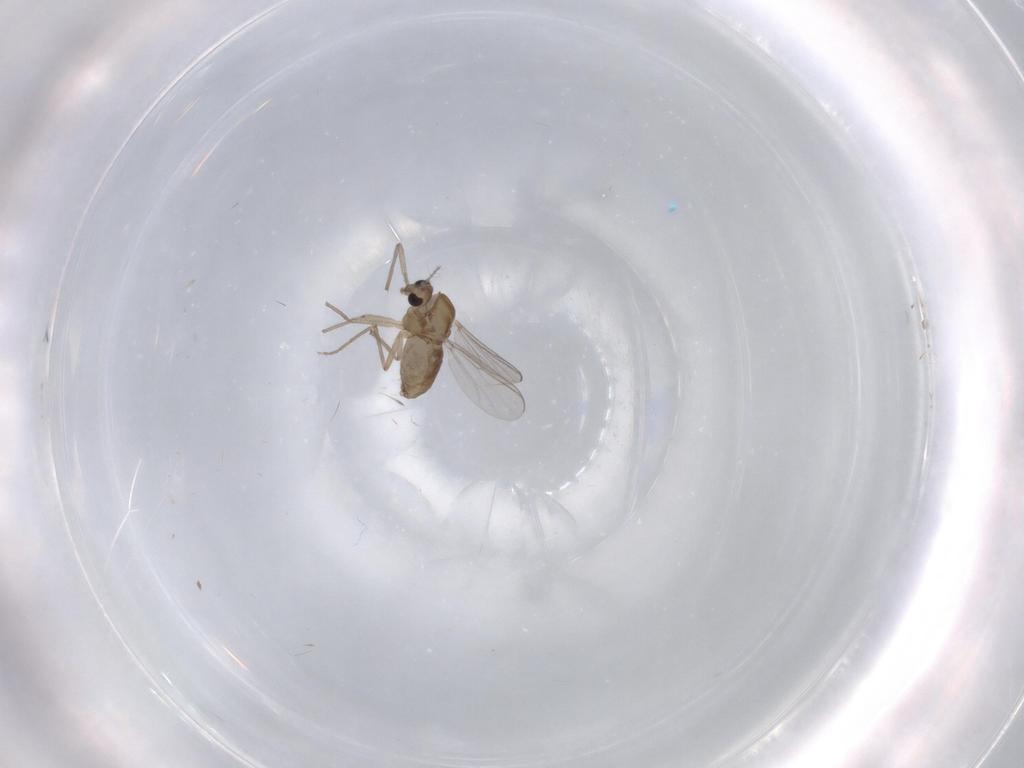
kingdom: Animalia
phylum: Arthropoda
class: Insecta
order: Diptera
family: Chironomidae
